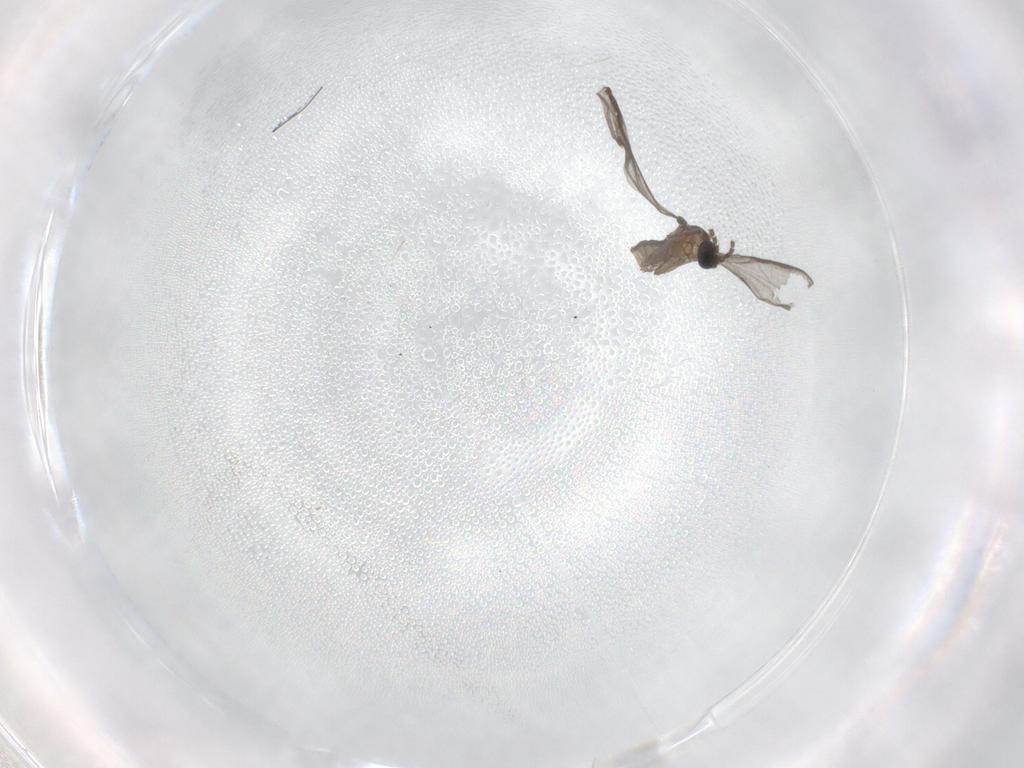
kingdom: Animalia
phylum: Arthropoda
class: Insecta
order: Diptera
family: Sciaridae
